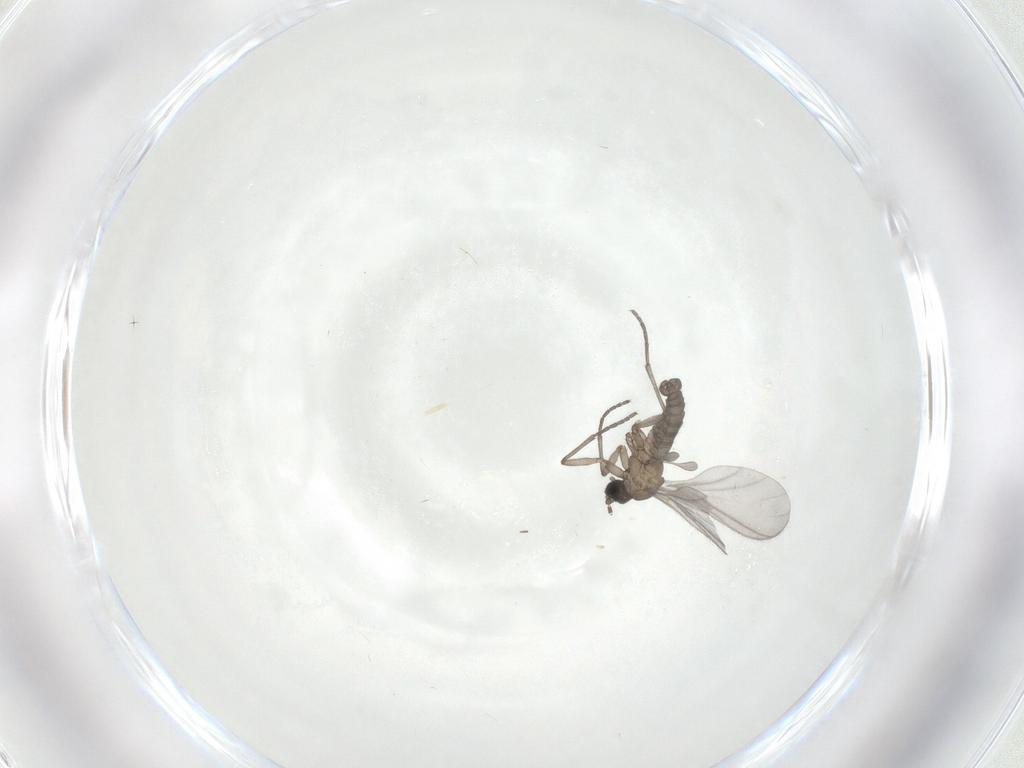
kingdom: Animalia
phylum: Arthropoda
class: Insecta
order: Diptera
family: Sciaridae
